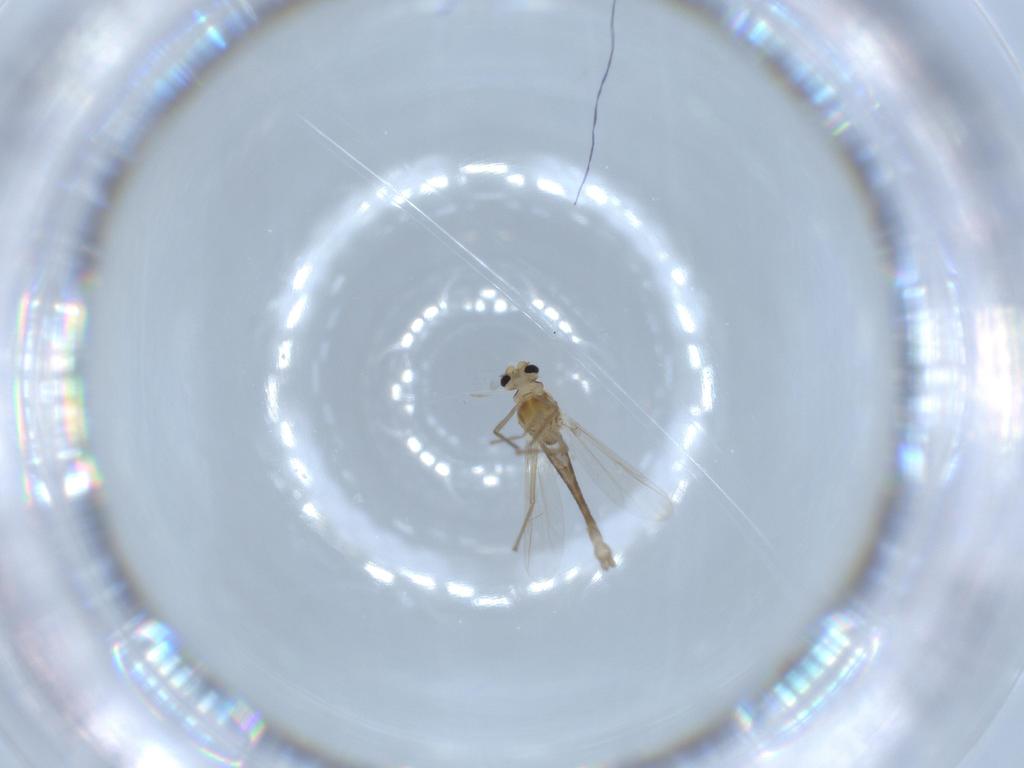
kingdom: Animalia
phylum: Arthropoda
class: Insecta
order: Diptera
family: Chironomidae
